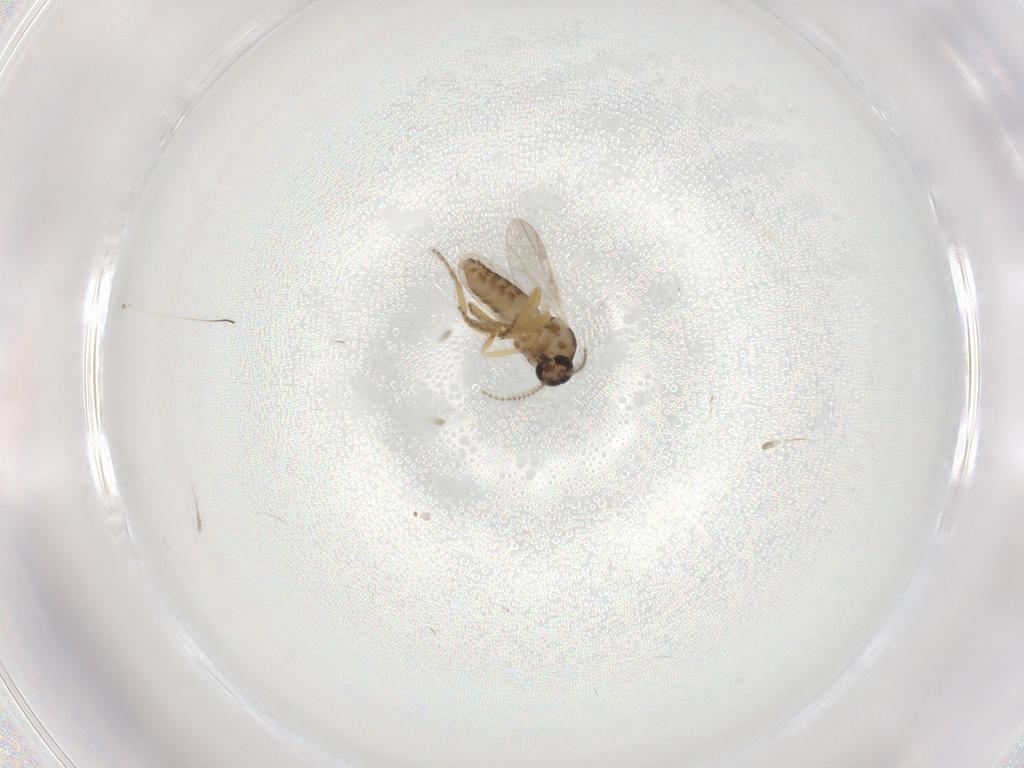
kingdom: Animalia
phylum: Arthropoda
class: Insecta
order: Diptera
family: Ceratopogonidae
